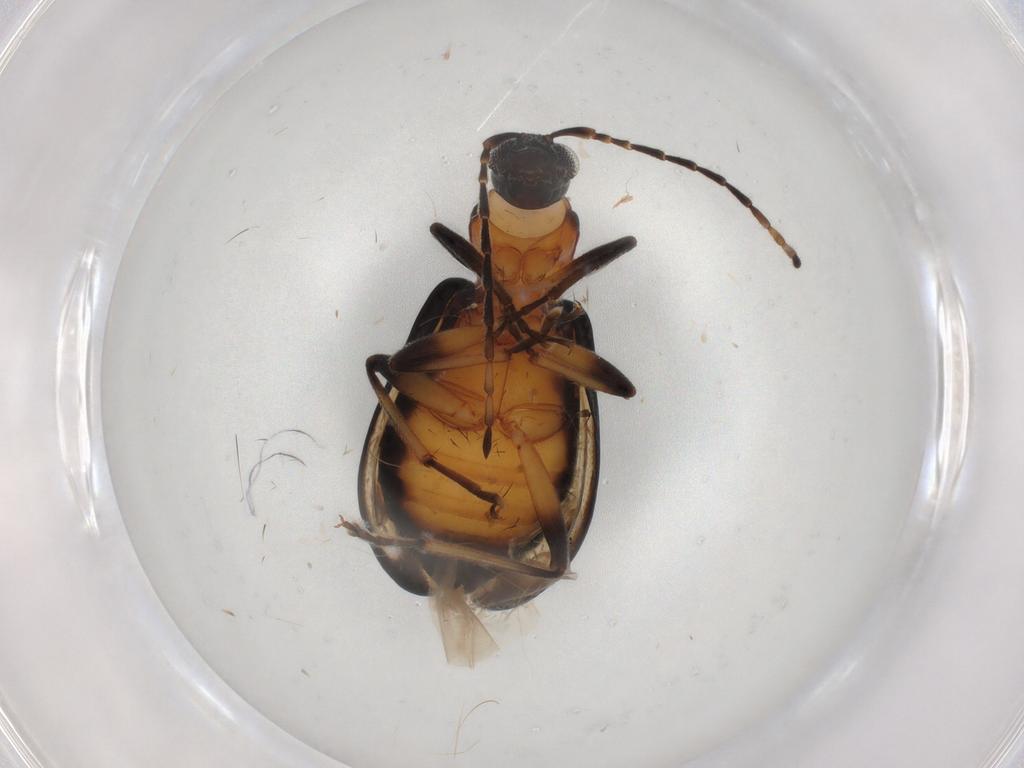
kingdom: Animalia
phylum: Arthropoda
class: Insecta
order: Coleoptera
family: Chrysomelidae
